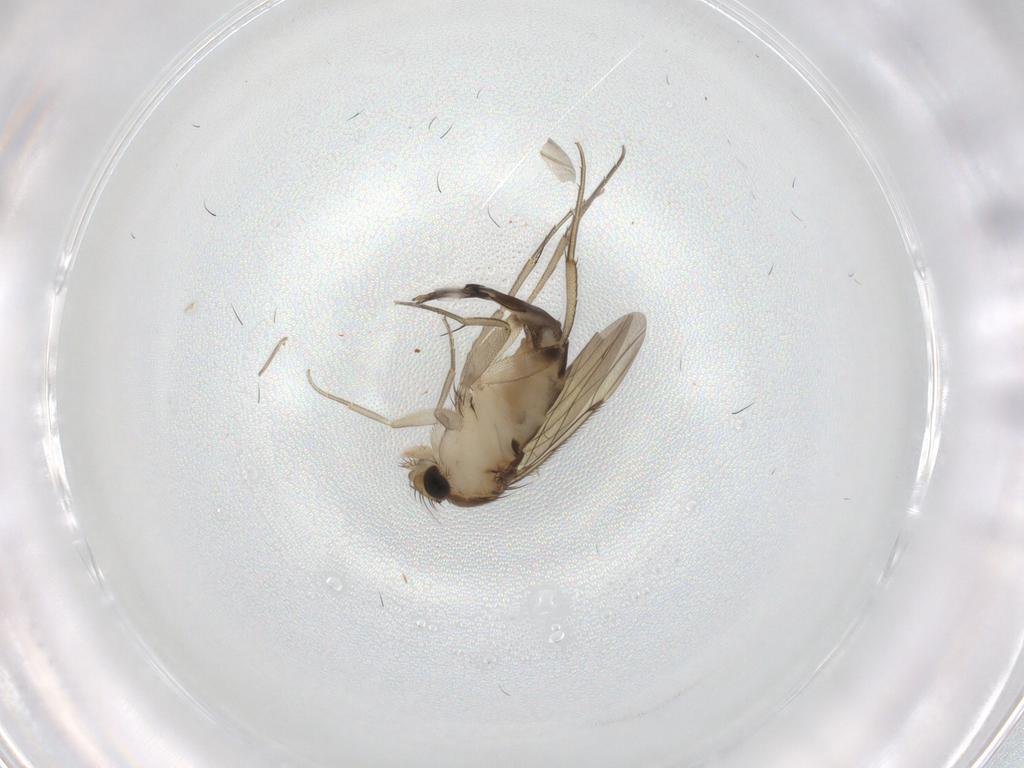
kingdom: Animalia
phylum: Arthropoda
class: Insecta
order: Diptera
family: Phoridae
